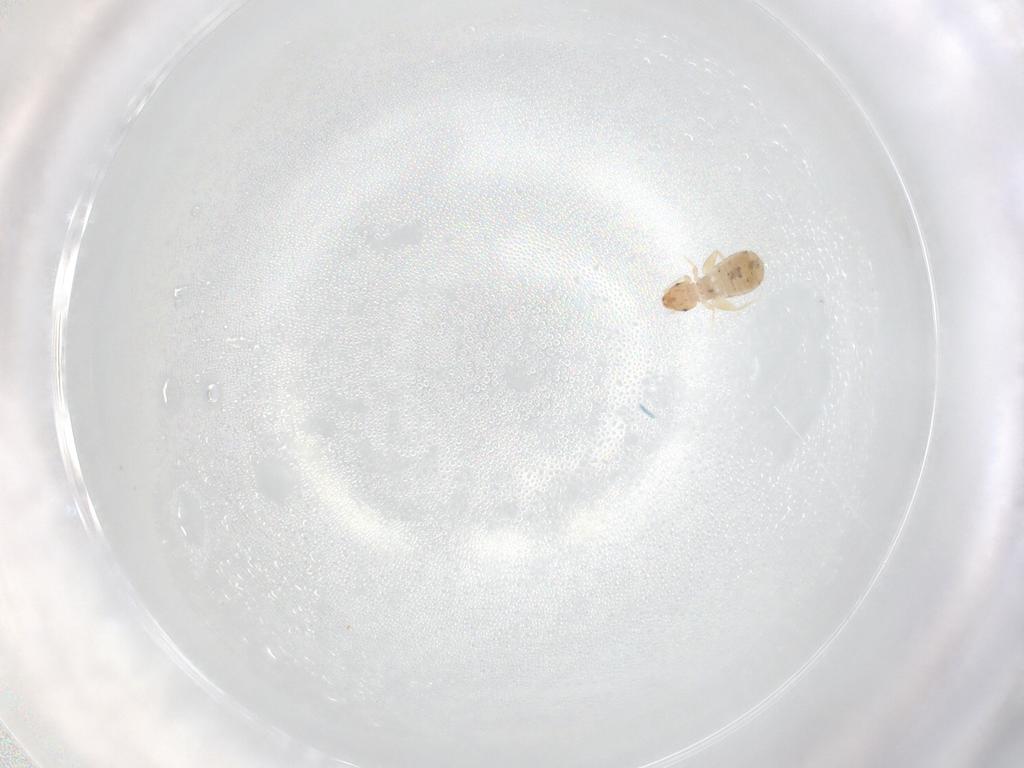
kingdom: Animalia
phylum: Arthropoda
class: Insecta
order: Psocodea
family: Liposcelididae
